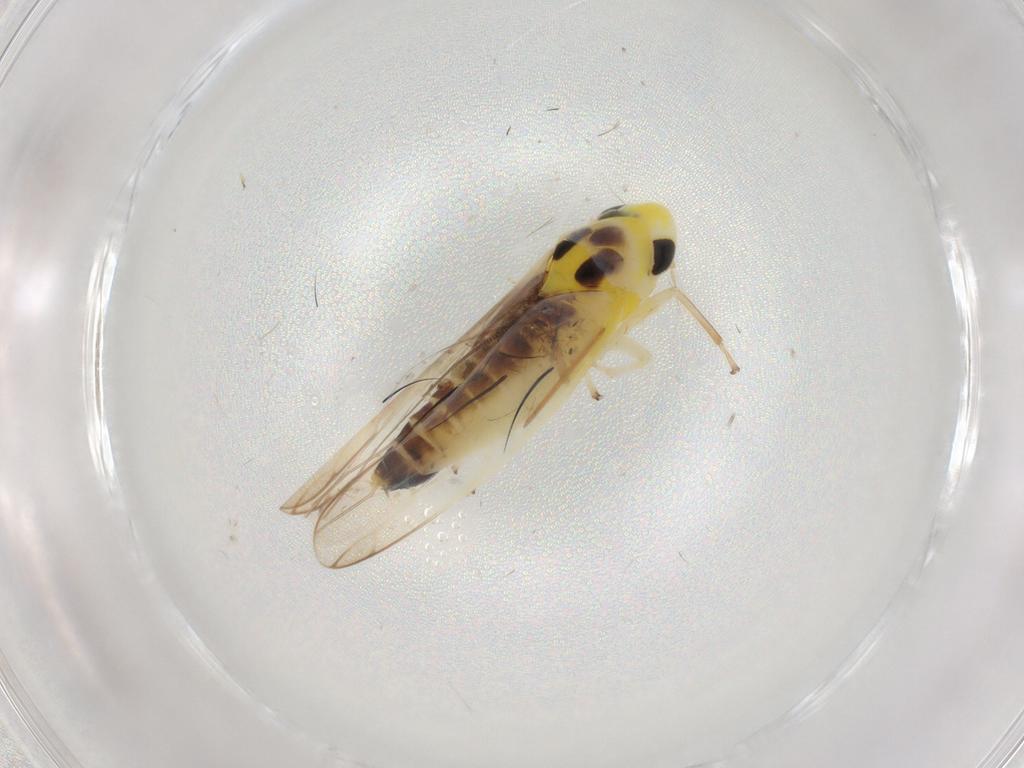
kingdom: Animalia
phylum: Arthropoda
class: Insecta
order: Hemiptera
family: Cicadellidae
